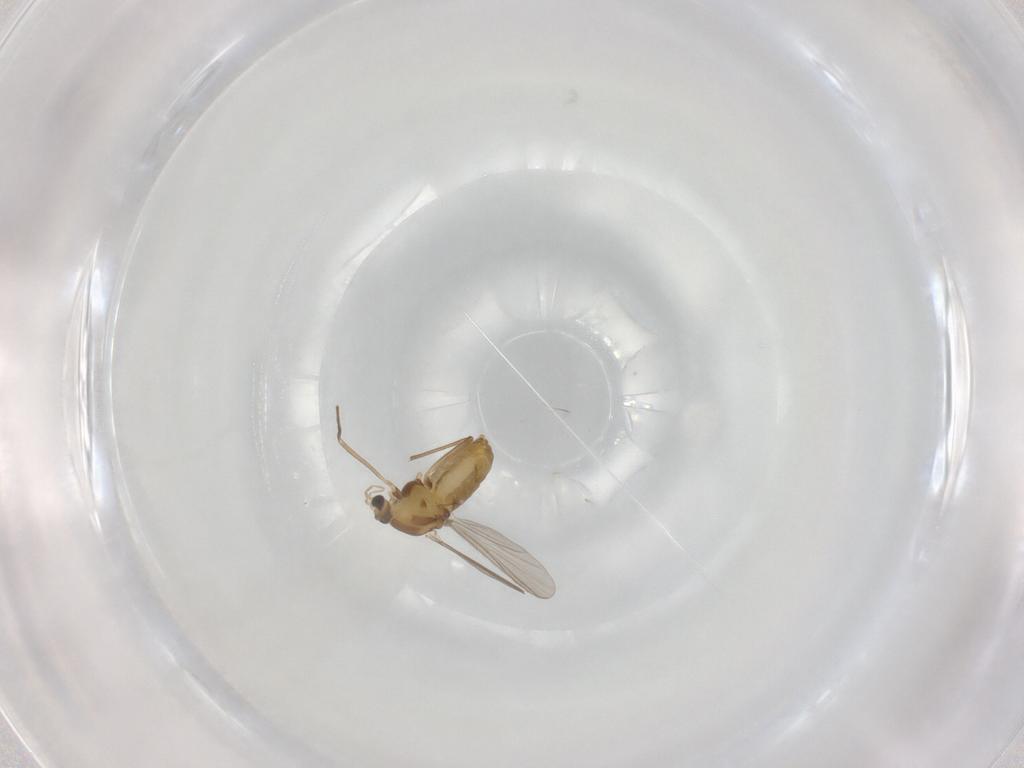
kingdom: Animalia
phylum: Arthropoda
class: Insecta
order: Diptera
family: Chironomidae
